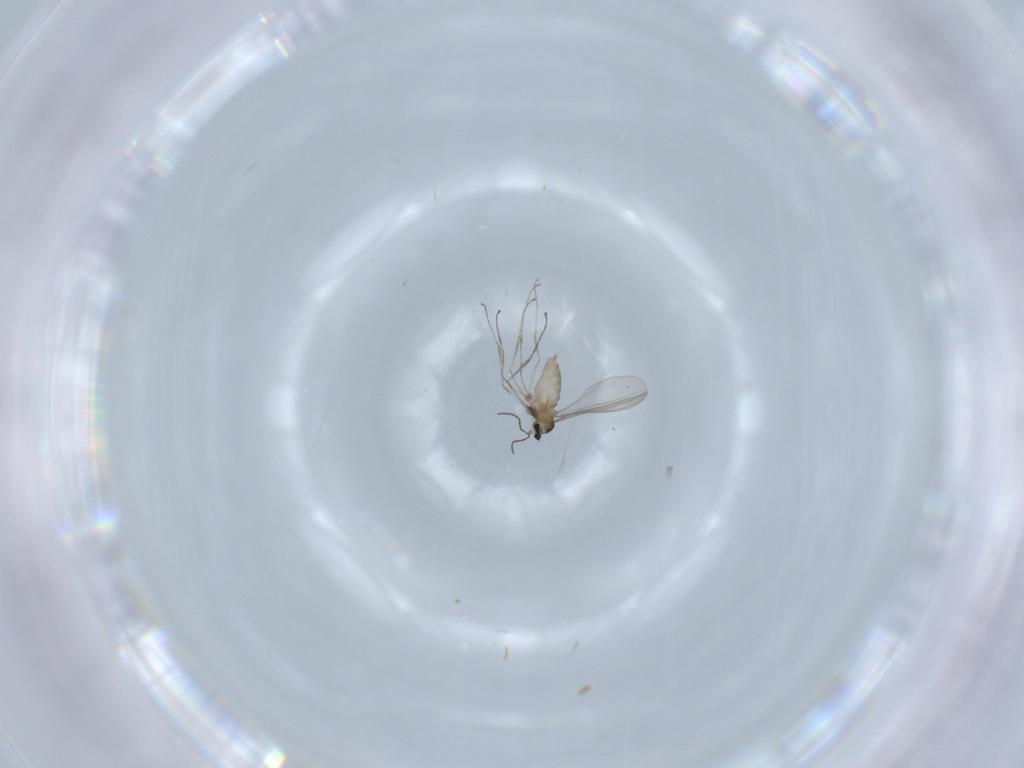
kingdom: Animalia
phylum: Arthropoda
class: Insecta
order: Diptera
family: Cecidomyiidae
